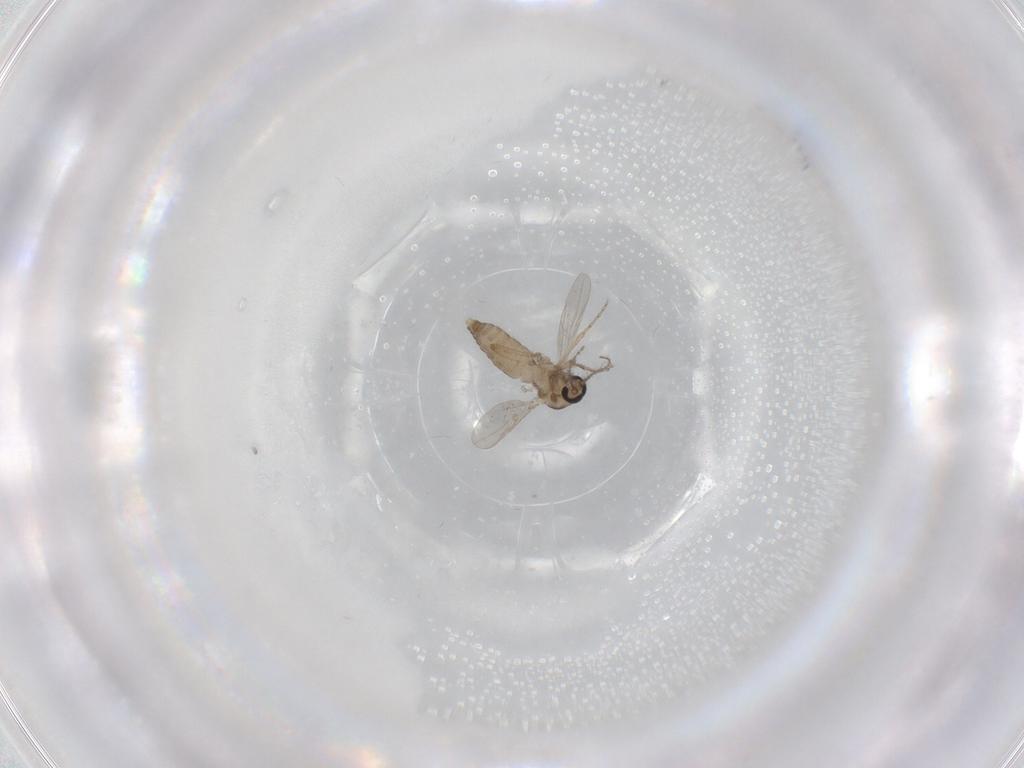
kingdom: Animalia
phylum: Arthropoda
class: Insecta
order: Diptera
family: Ceratopogonidae
